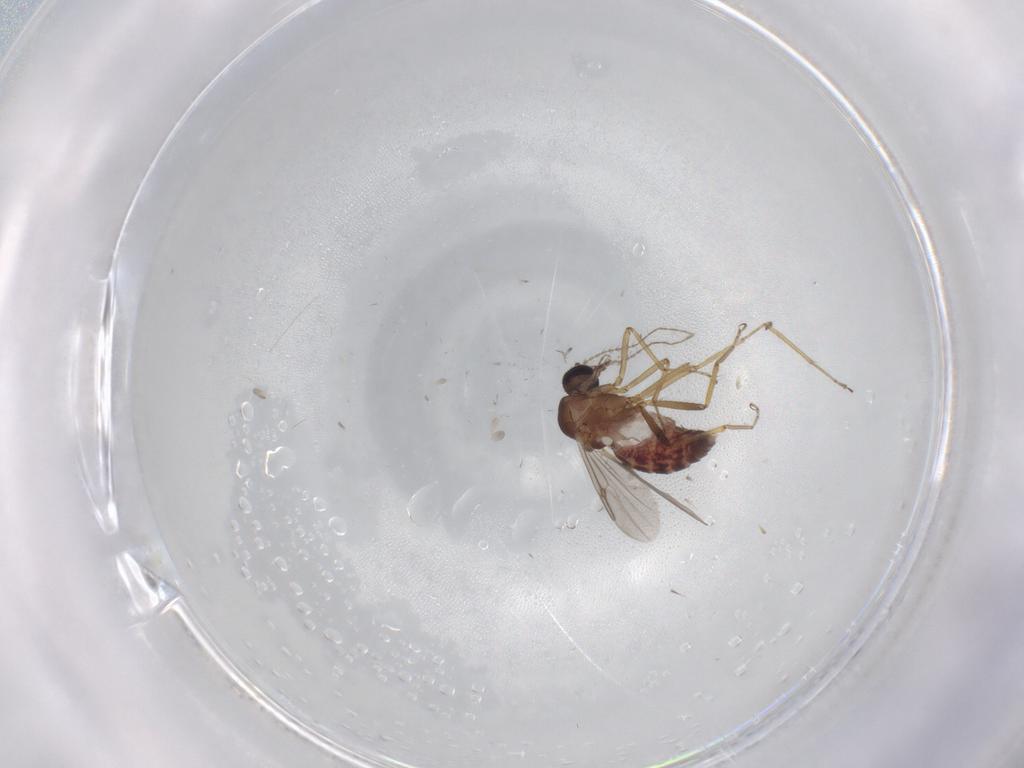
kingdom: Animalia
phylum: Arthropoda
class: Insecta
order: Diptera
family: Ceratopogonidae
